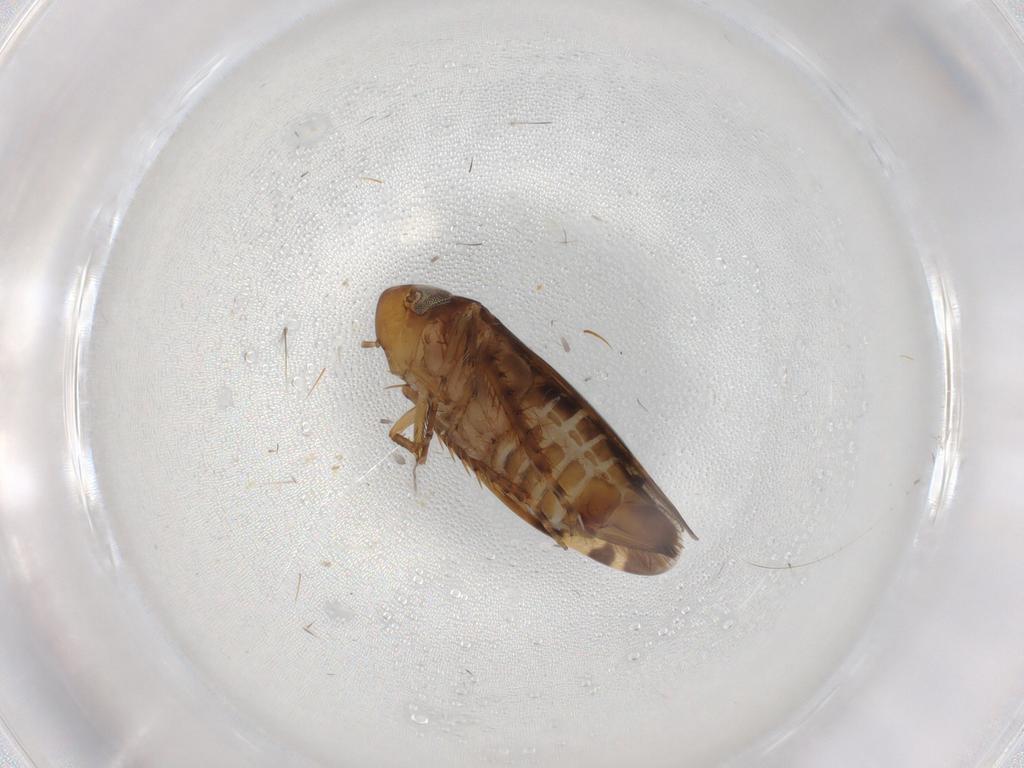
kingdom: Animalia
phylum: Arthropoda
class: Insecta
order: Hemiptera
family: Cicadellidae
